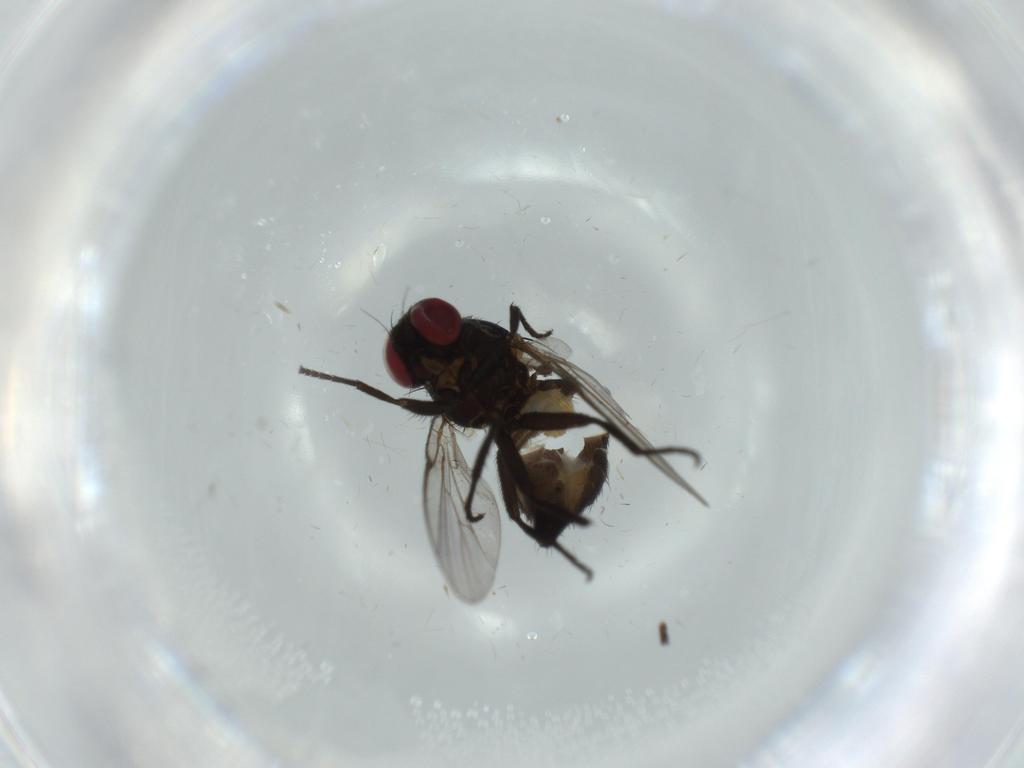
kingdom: Animalia
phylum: Arthropoda
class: Insecta
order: Diptera
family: Agromyzidae
